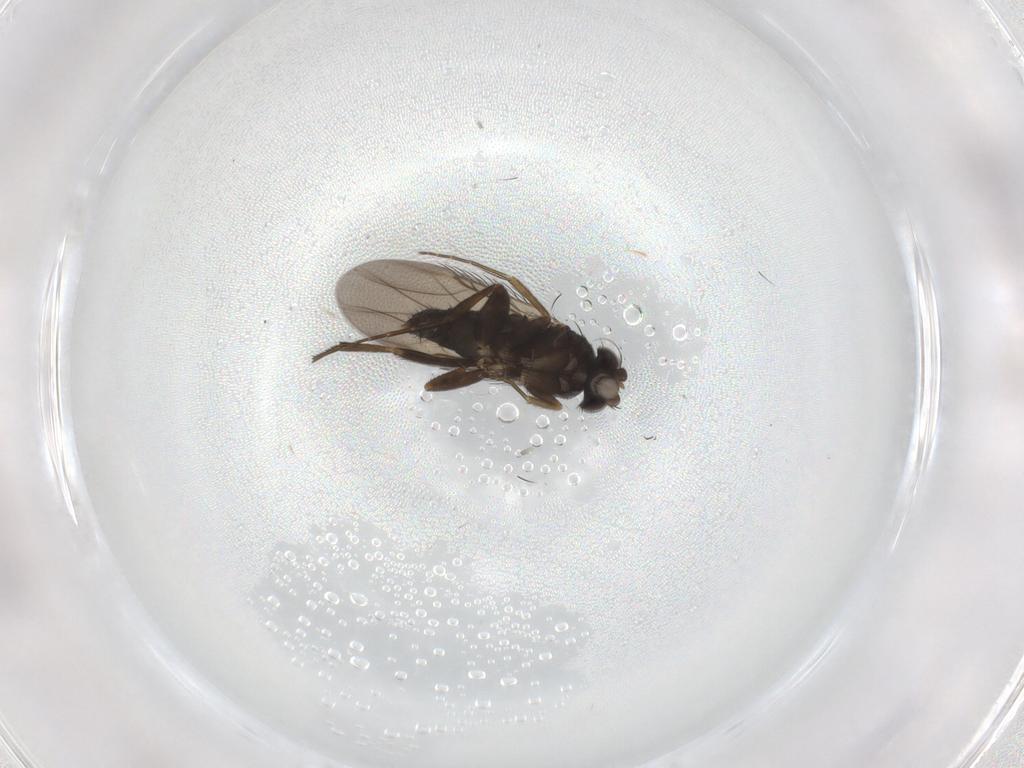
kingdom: Animalia
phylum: Arthropoda
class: Insecta
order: Diptera
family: Phoridae
